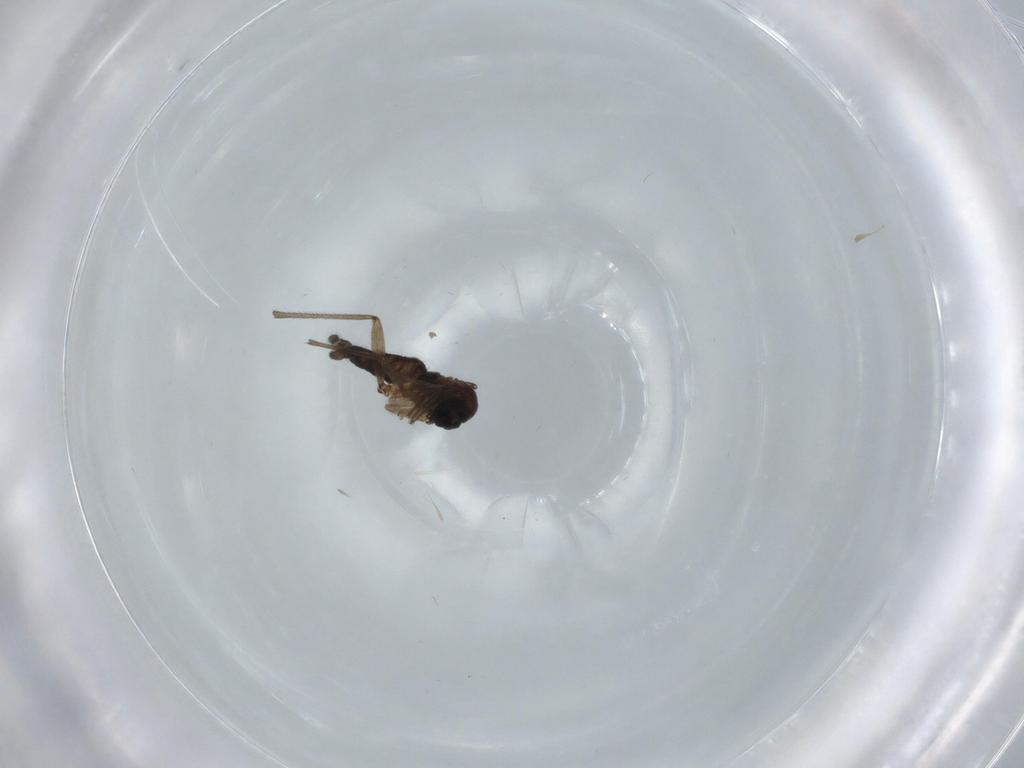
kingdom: Animalia
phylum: Arthropoda
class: Insecta
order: Diptera
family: Sciaridae
